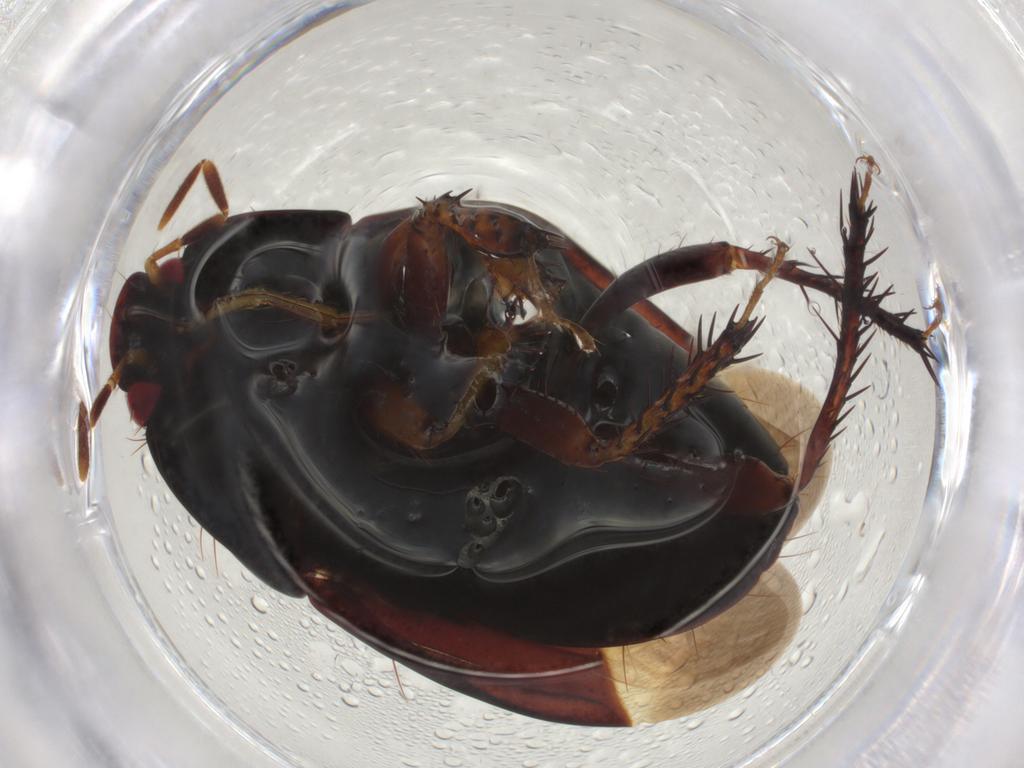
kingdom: Animalia
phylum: Arthropoda
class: Insecta
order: Hemiptera
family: Cydnidae
